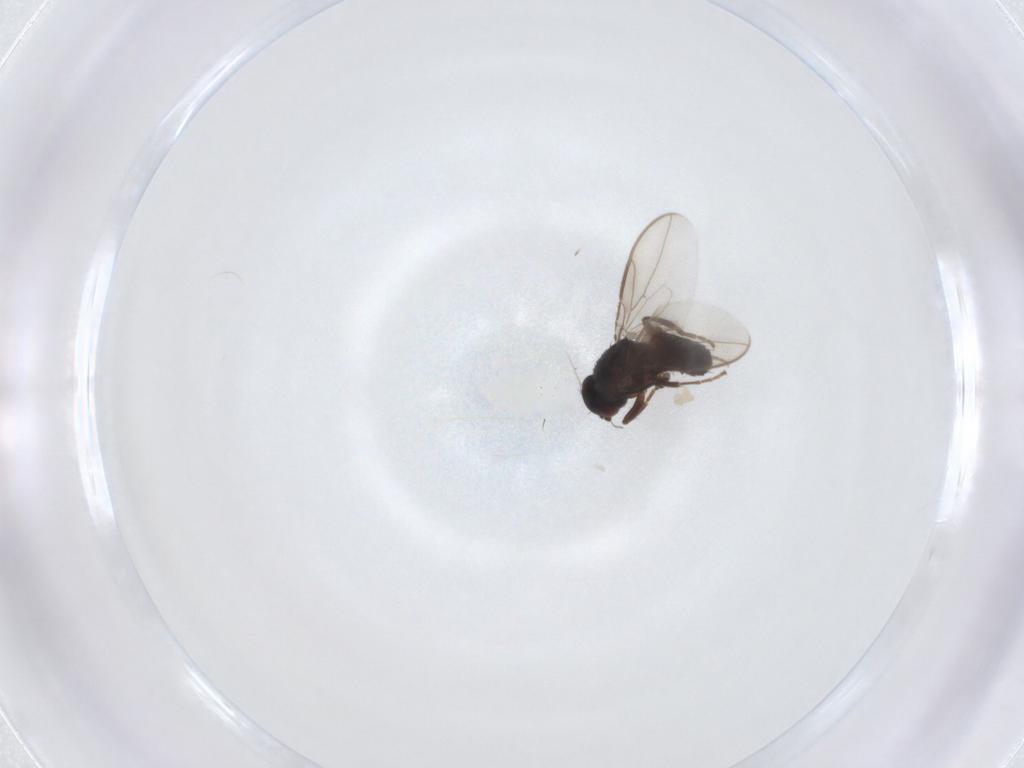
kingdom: Animalia
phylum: Arthropoda
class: Insecta
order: Diptera
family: Sphaeroceridae
